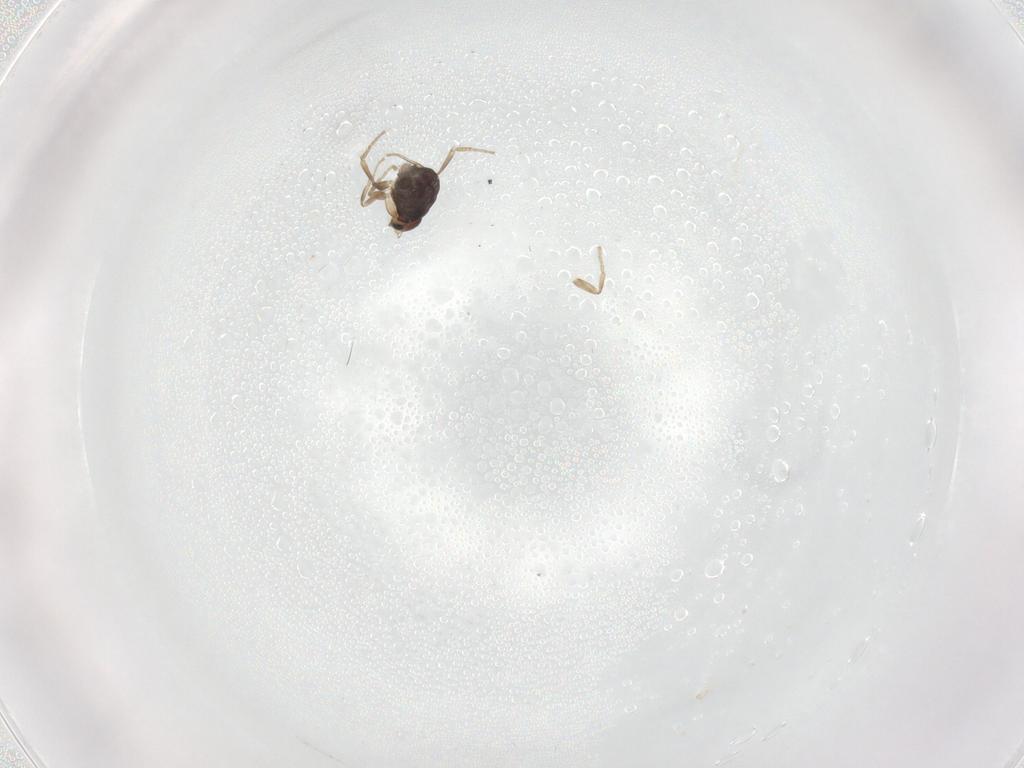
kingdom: Animalia
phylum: Arthropoda
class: Insecta
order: Diptera
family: Phoridae
